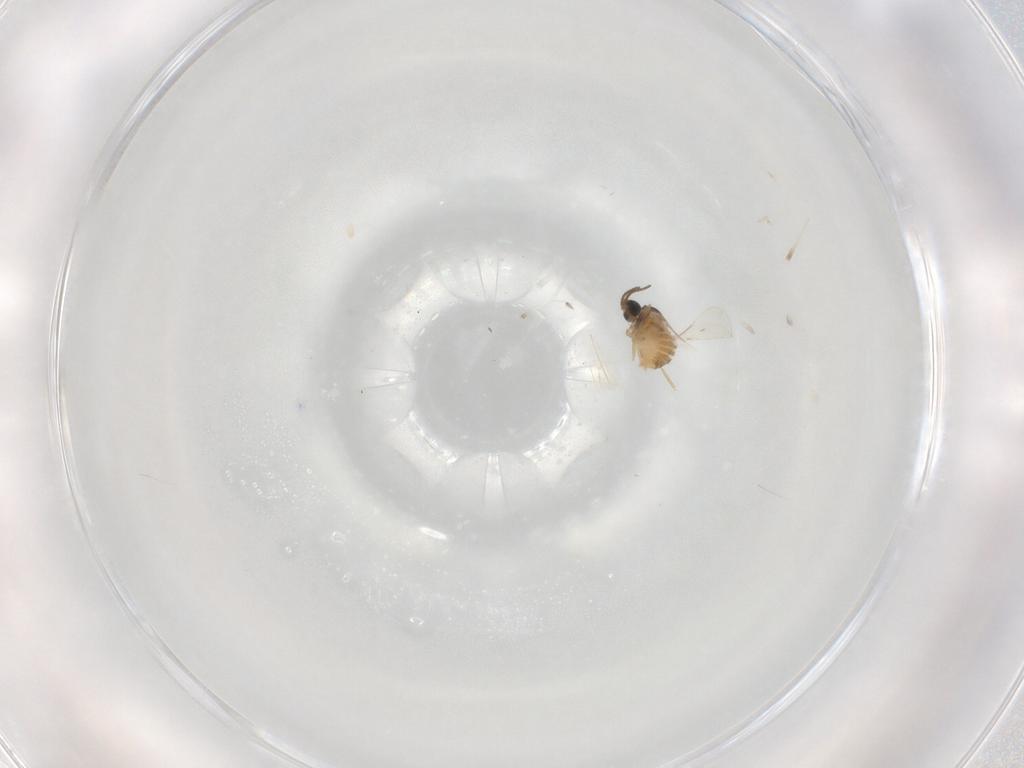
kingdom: Animalia
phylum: Arthropoda
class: Insecta
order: Diptera
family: Cecidomyiidae
